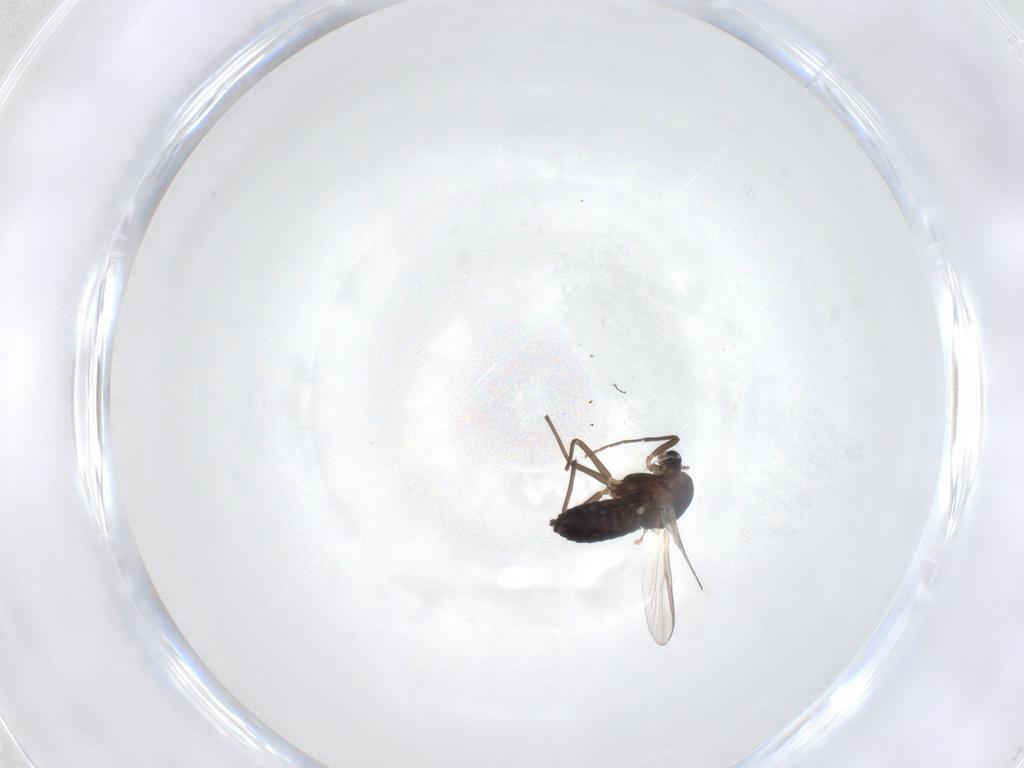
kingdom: Animalia
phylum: Arthropoda
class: Insecta
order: Diptera
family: Chironomidae
